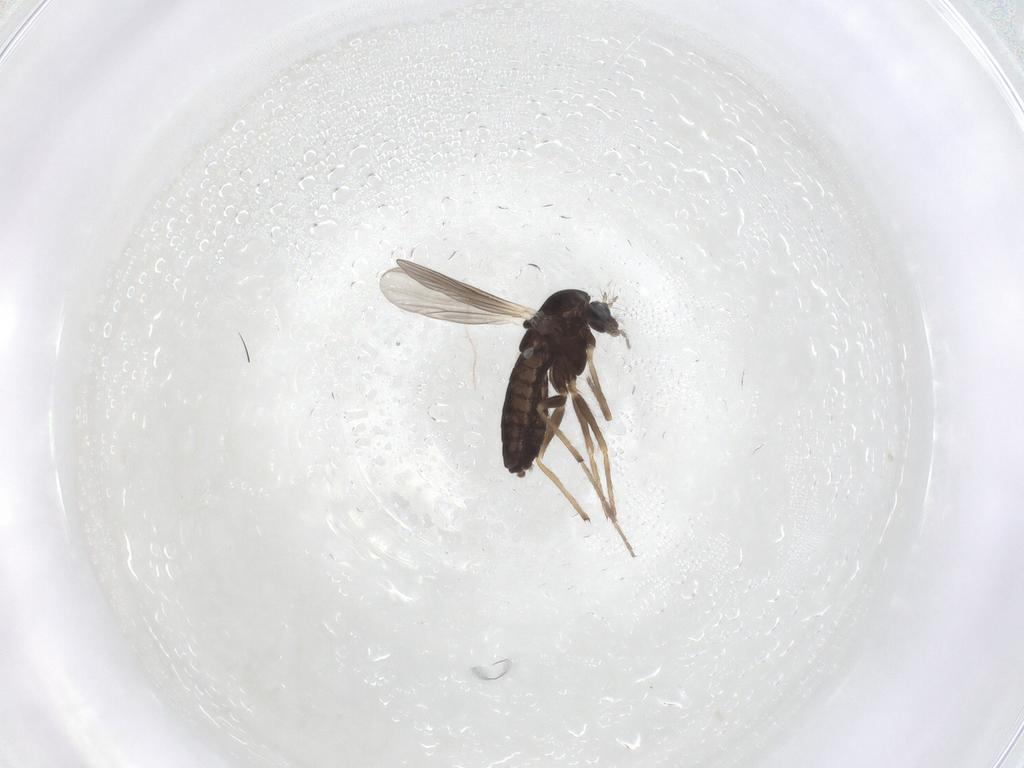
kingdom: Animalia
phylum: Arthropoda
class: Insecta
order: Diptera
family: Chironomidae
